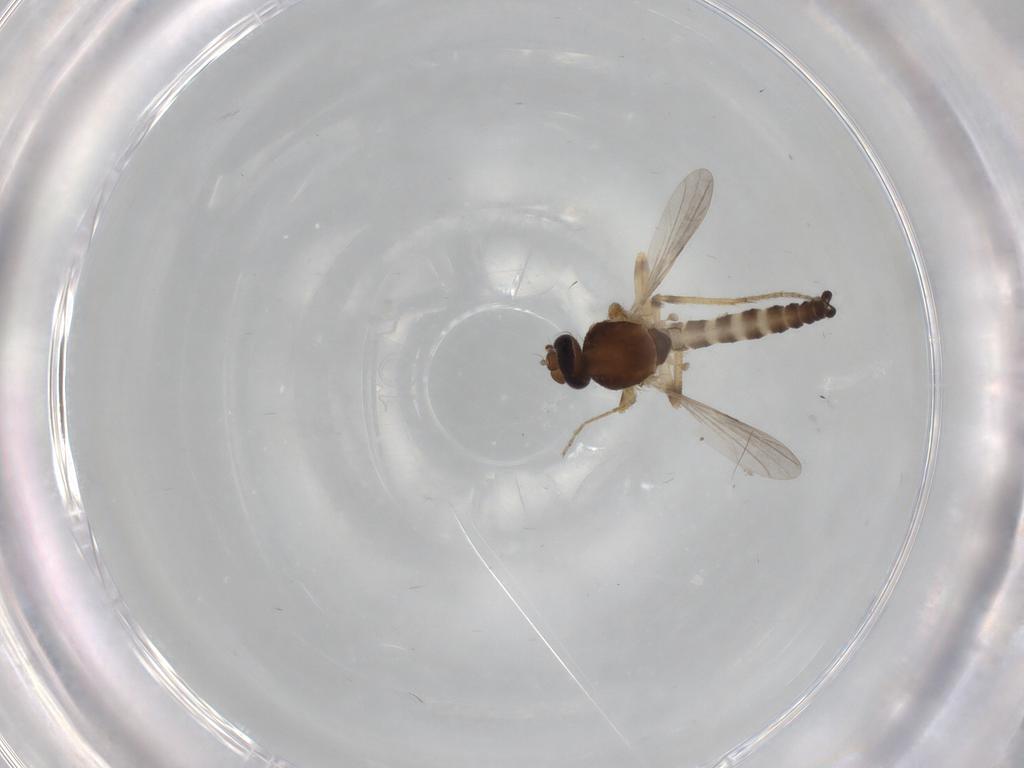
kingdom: Animalia
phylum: Arthropoda
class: Insecta
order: Diptera
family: Ceratopogonidae
